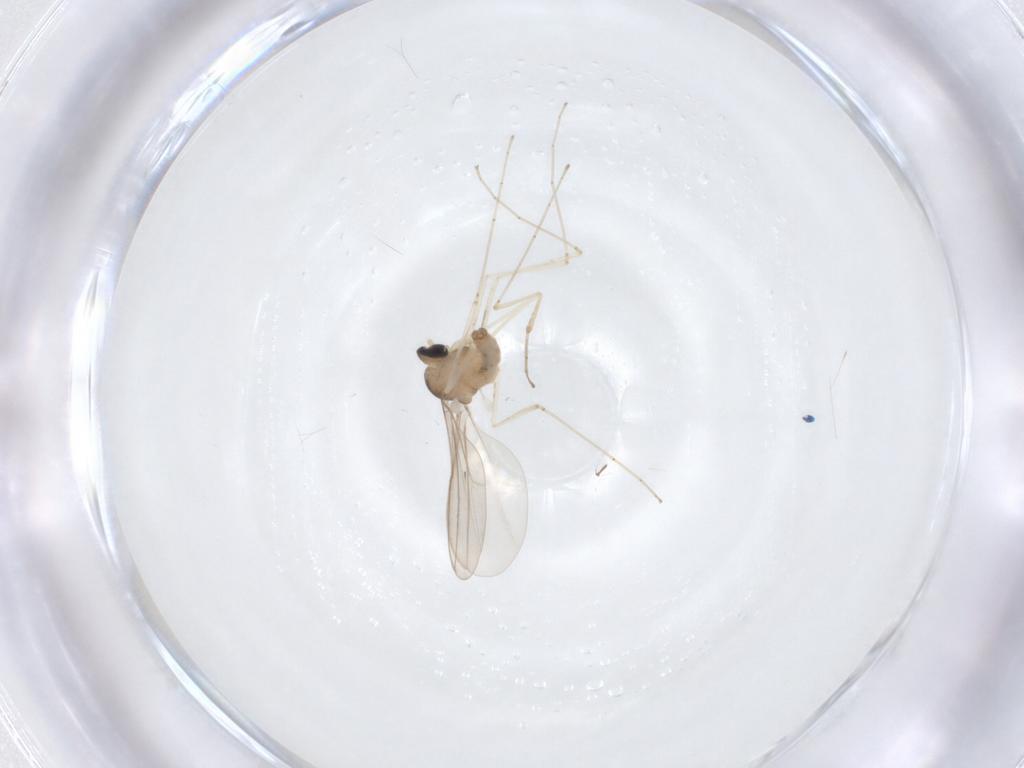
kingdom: Animalia
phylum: Arthropoda
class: Insecta
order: Diptera
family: Cecidomyiidae
